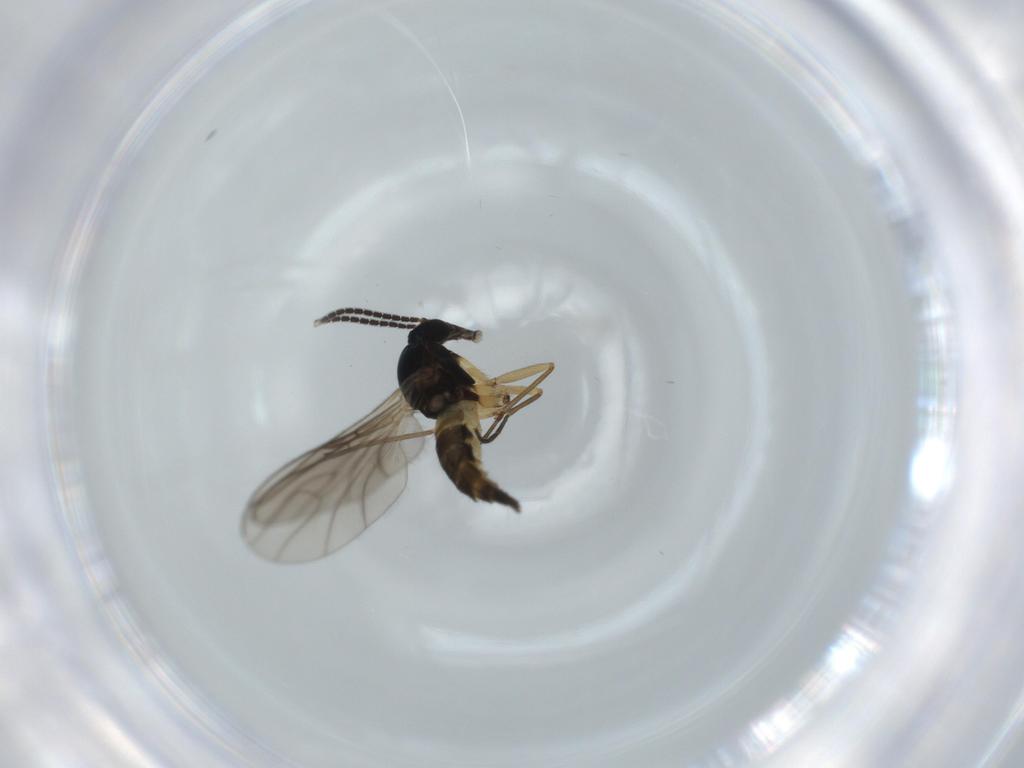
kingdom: Animalia
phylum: Arthropoda
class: Insecta
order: Diptera
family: Sciaridae
